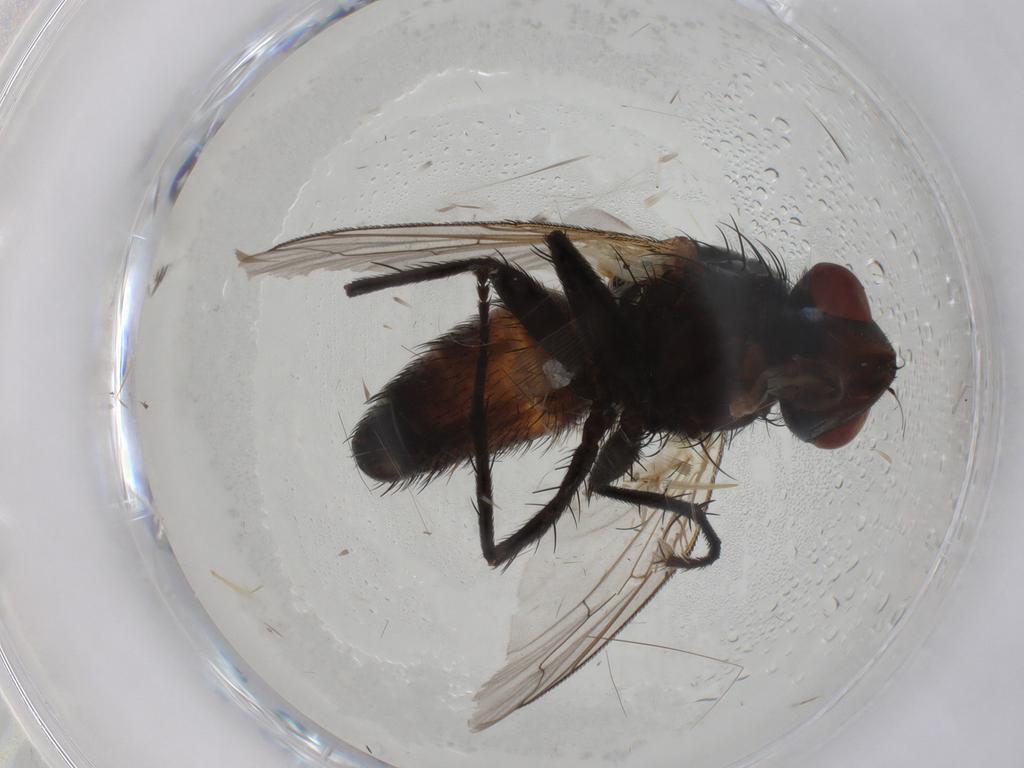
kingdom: Animalia
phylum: Arthropoda
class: Insecta
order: Diptera
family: Sarcophagidae
